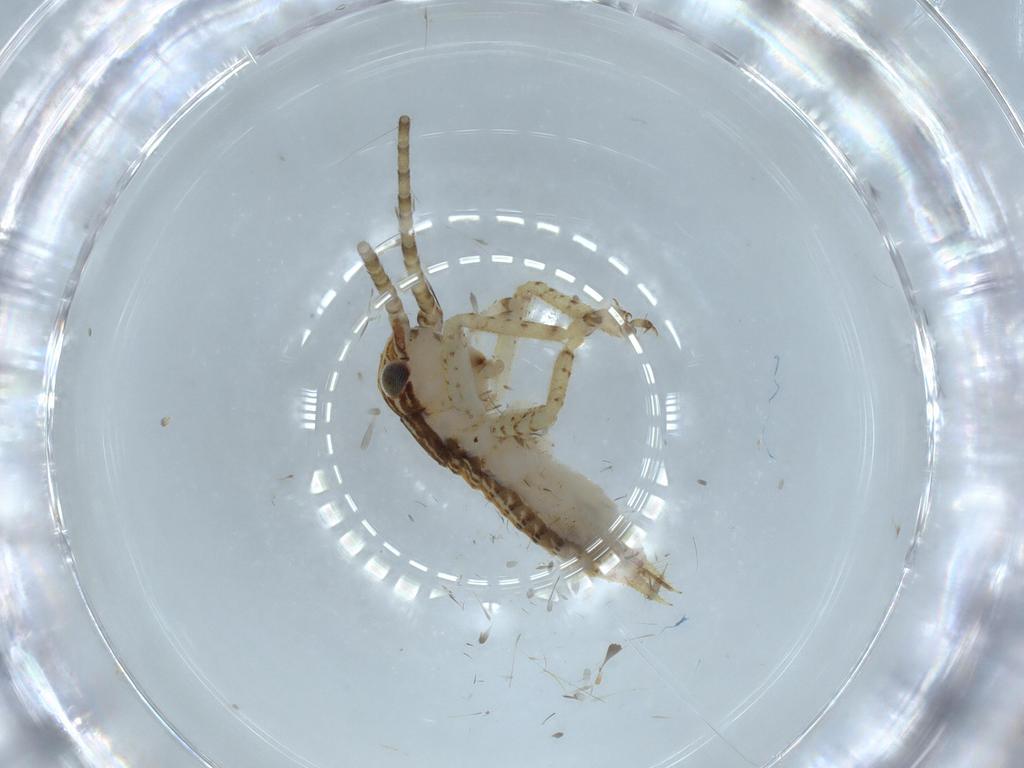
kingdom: Animalia
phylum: Arthropoda
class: Insecta
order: Orthoptera
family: Gryllidae
